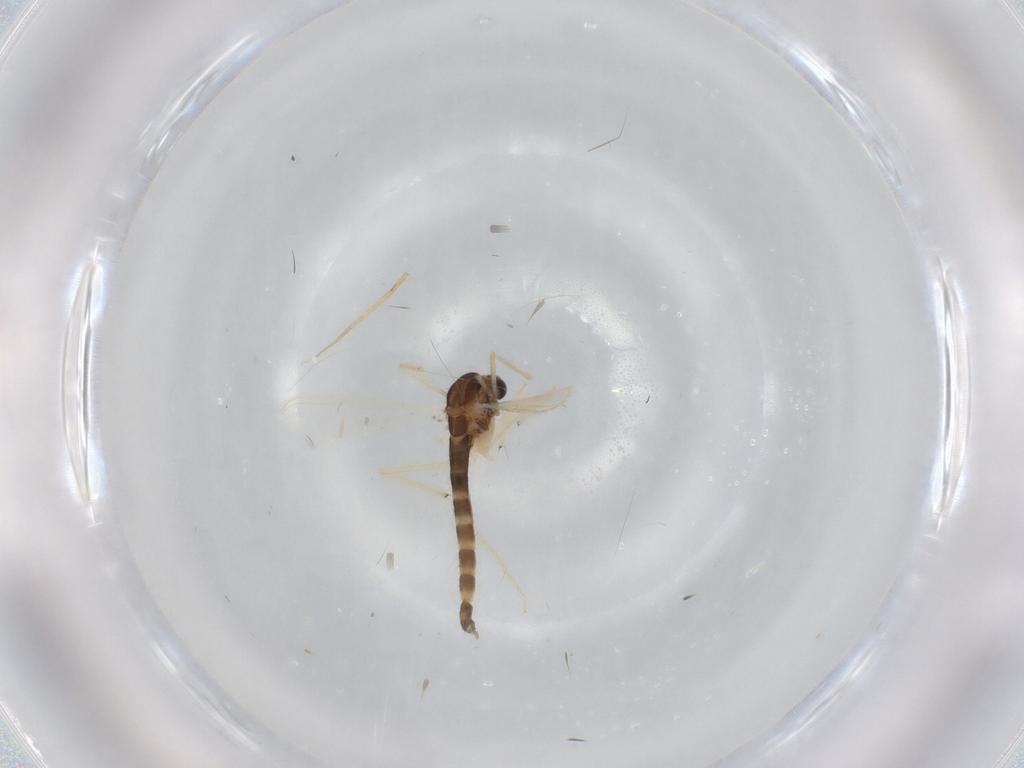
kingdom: Animalia
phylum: Arthropoda
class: Insecta
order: Diptera
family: Chironomidae
